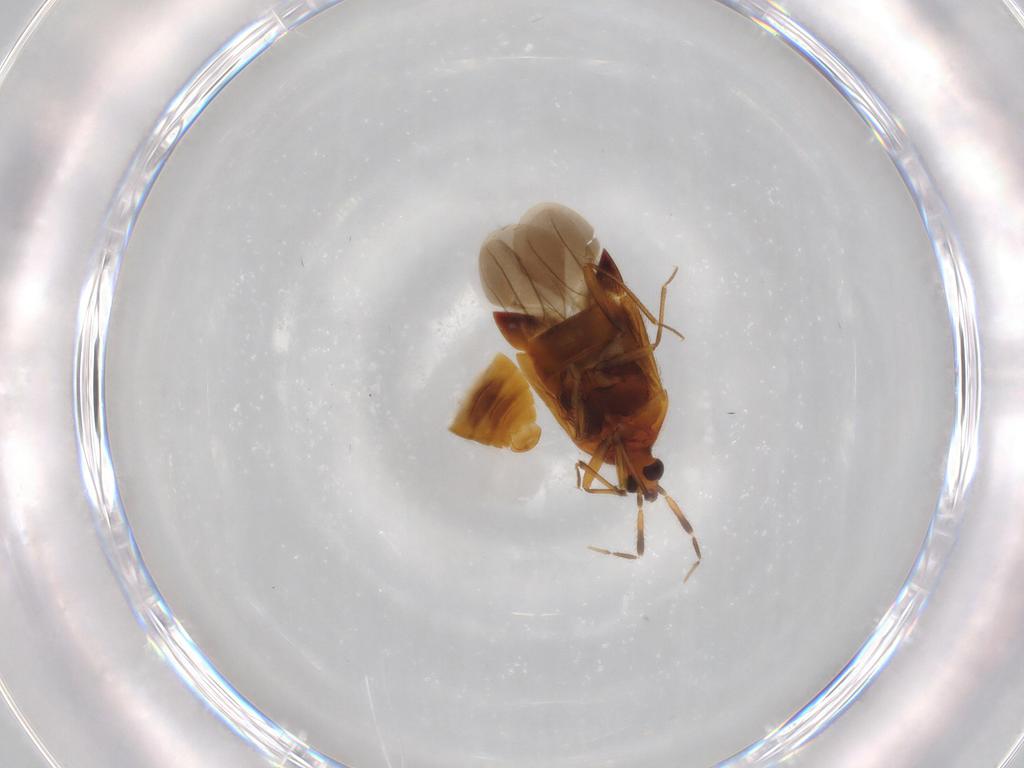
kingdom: Animalia
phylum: Arthropoda
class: Insecta
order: Hemiptera
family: Anthocoridae
